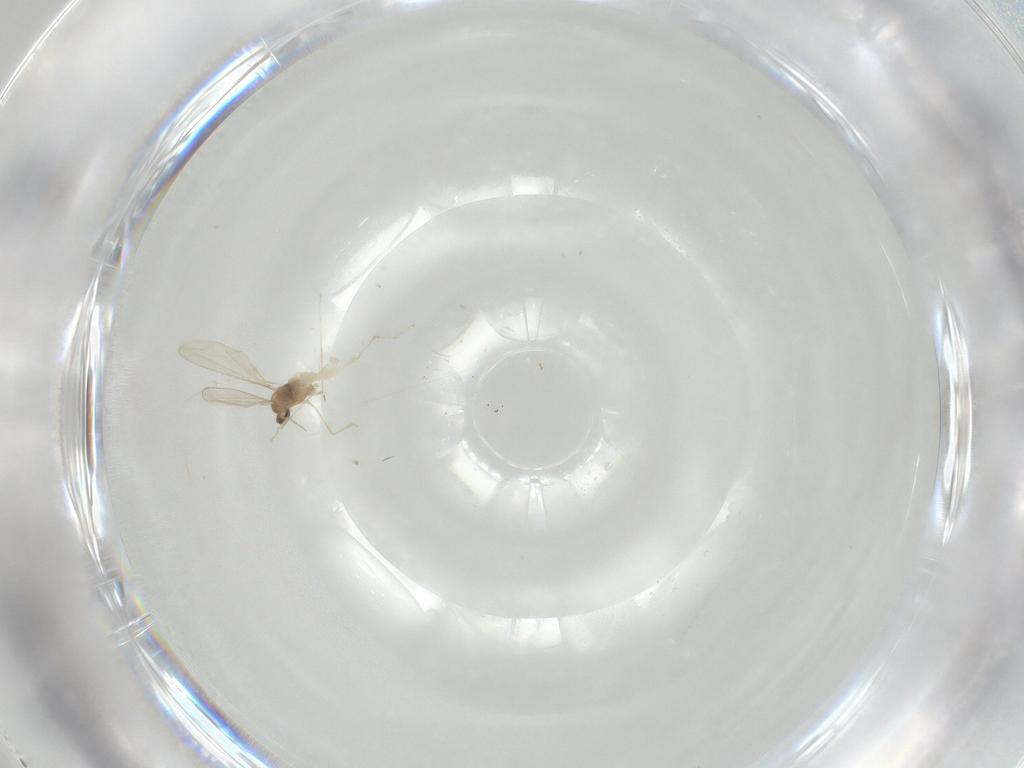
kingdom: Animalia
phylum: Arthropoda
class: Insecta
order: Diptera
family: Cecidomyiidae
